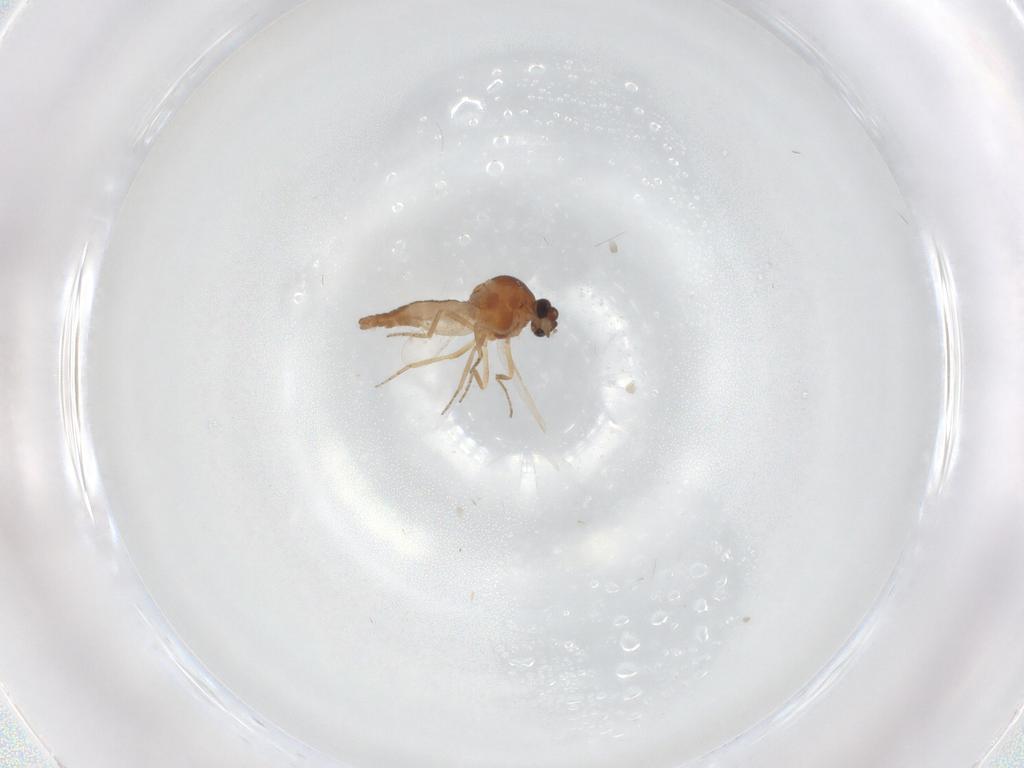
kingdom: Animalia
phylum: Arthropoda
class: Insecta
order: Diptera
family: Ceratopogonidae
